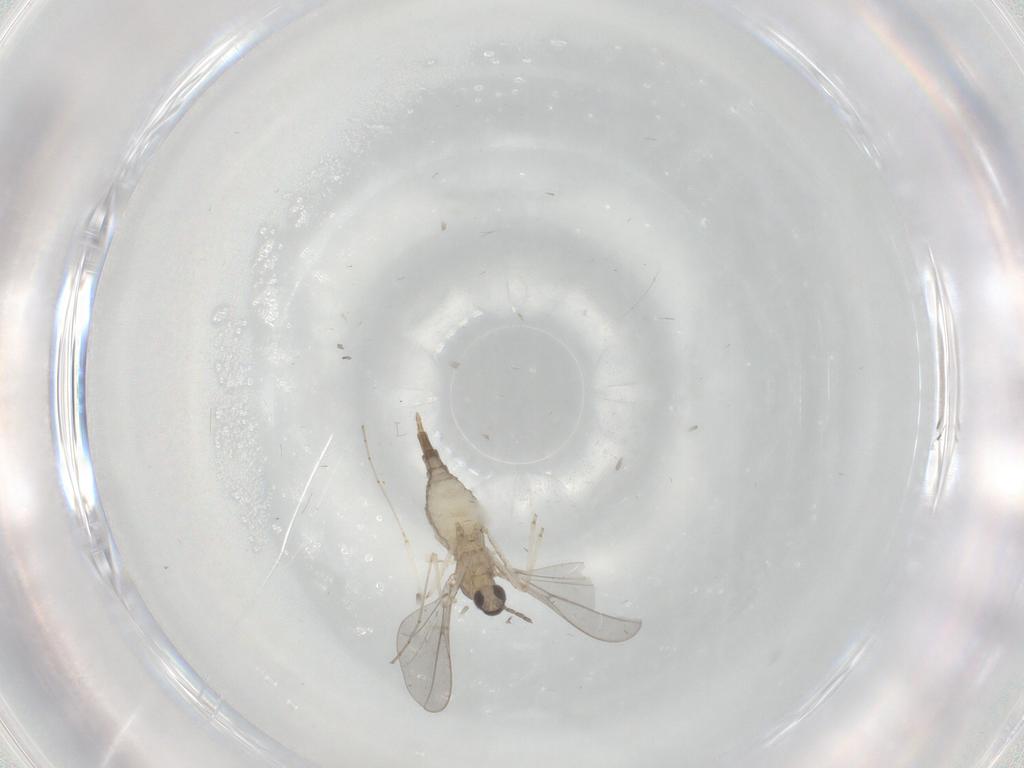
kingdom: Animalia
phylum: Arthropoda
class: Insecta
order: Diptera
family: Cecidomyiidae
